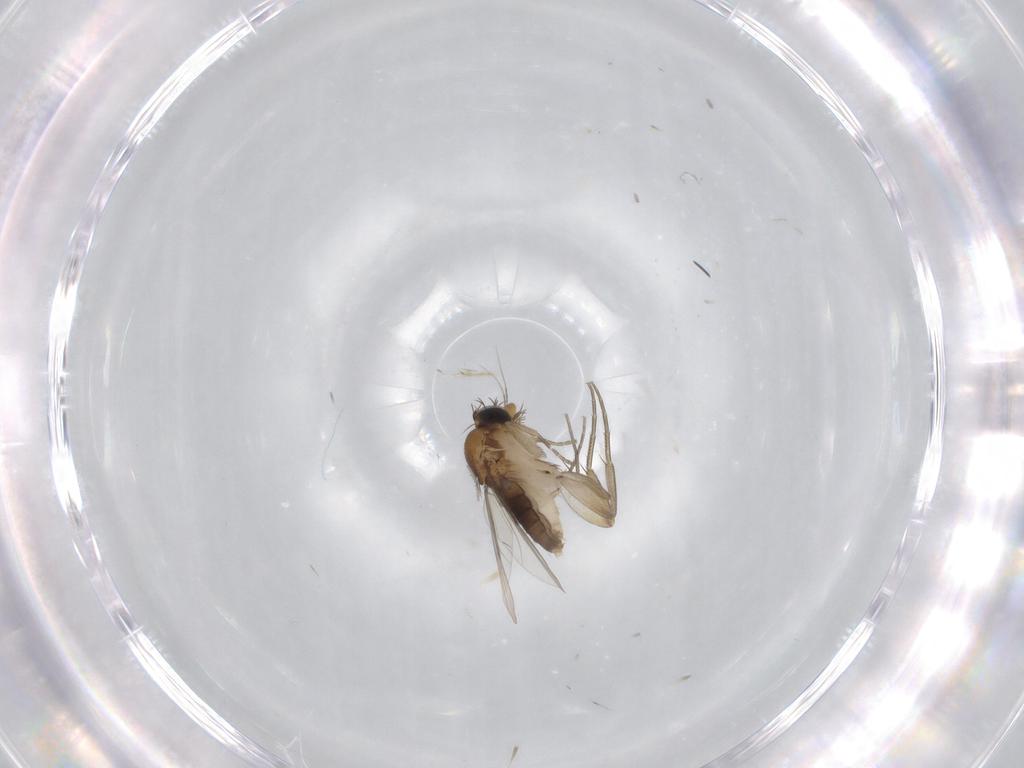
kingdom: Animalia
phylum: Arthropoda
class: Insecta
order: Diptera
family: Phoridae
